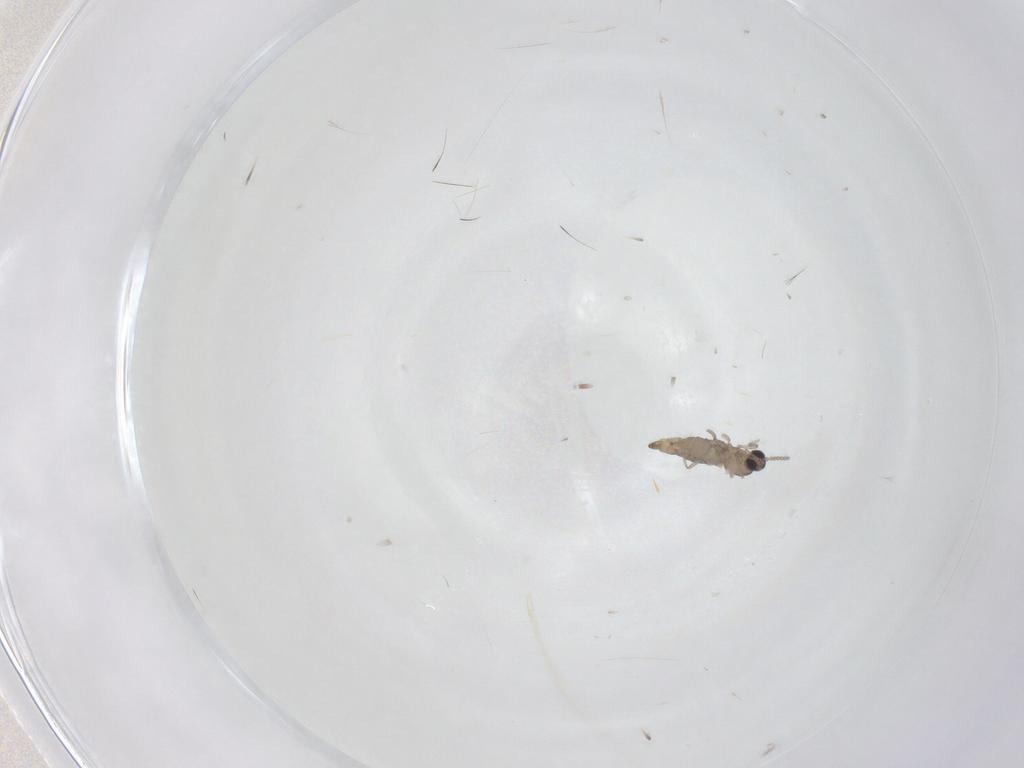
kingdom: Animalia
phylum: Arthropoda
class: Insecta
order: Diptera
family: Cecidomyiidae
